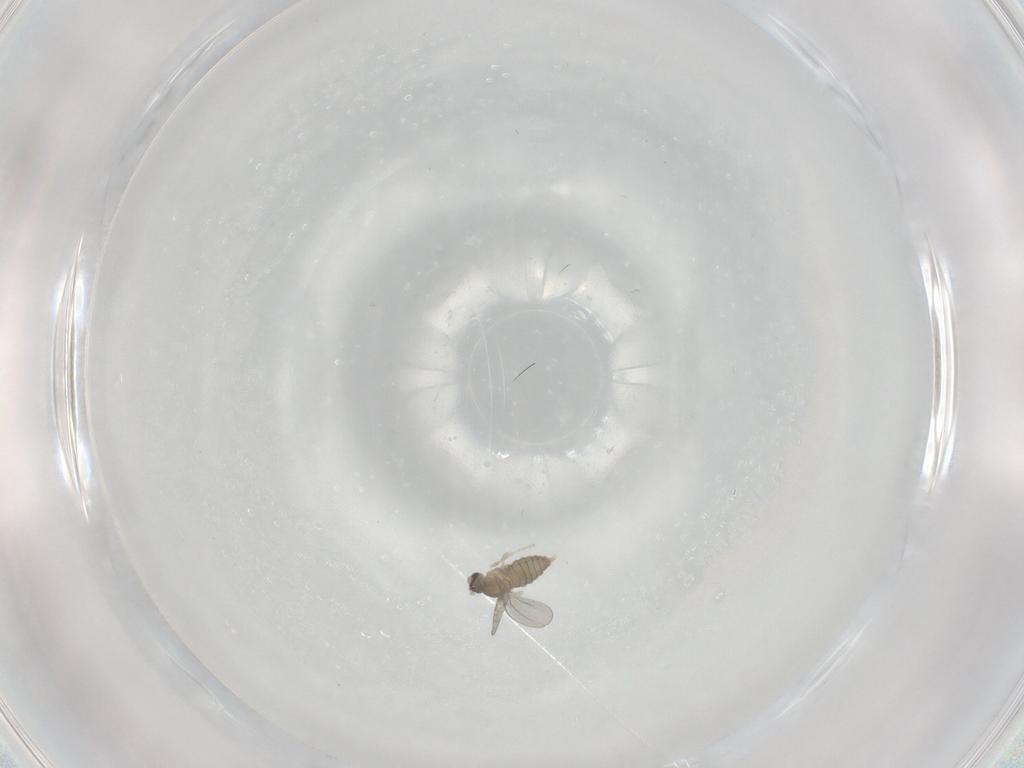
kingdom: Animalia
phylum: Arthropoda
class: Insecta
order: Diptera
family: Cecidomyiidae
